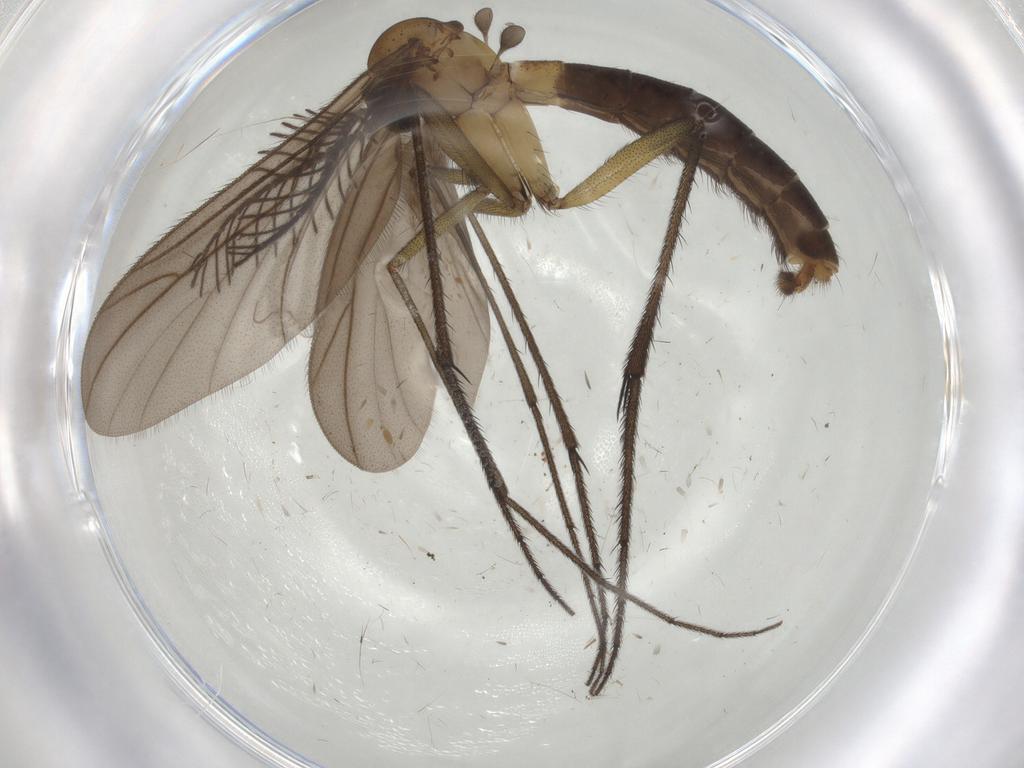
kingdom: Animalia
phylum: Arthropoda
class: Insecta
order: Diptera
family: Ditomyiidae
